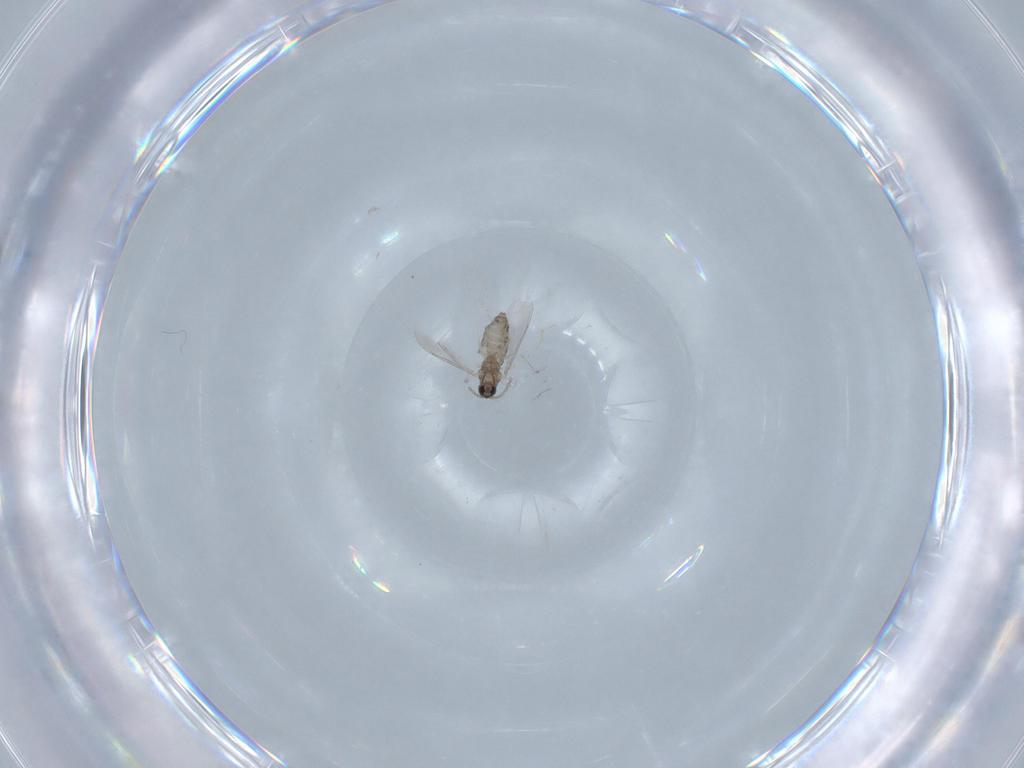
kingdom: Animalia
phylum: Arthropoda
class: Insecta
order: Diptera
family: Cecidomyiidae
